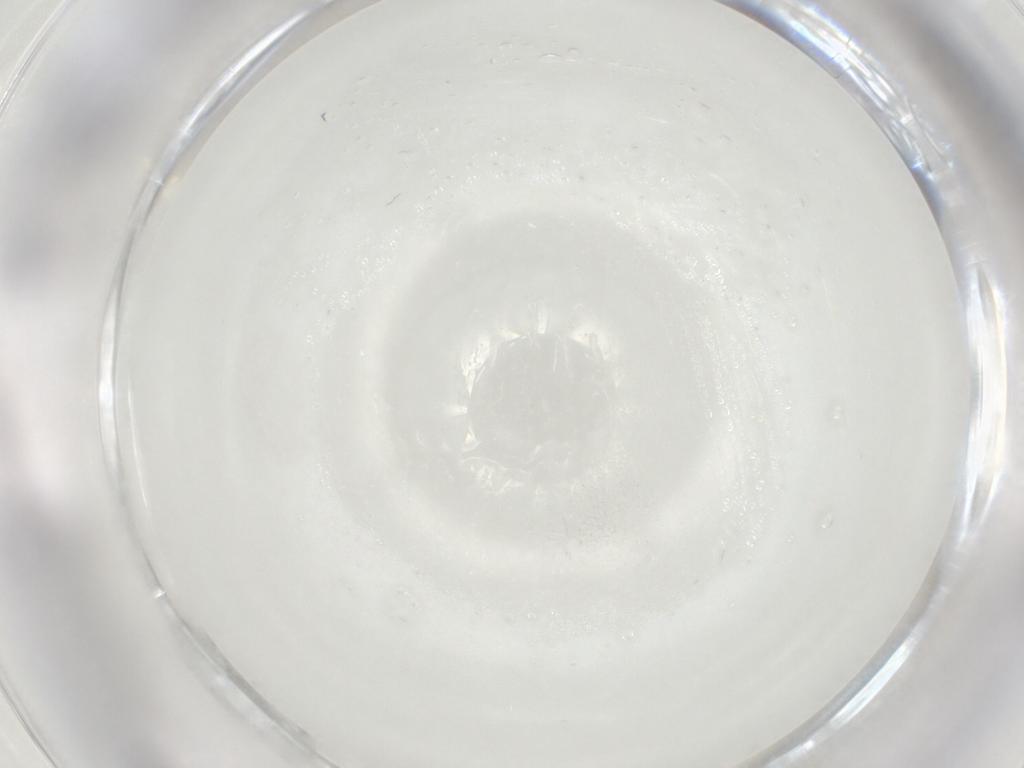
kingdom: Animalia
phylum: Arthropoda
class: Insecta
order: Coleoptera
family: Zopheridae
